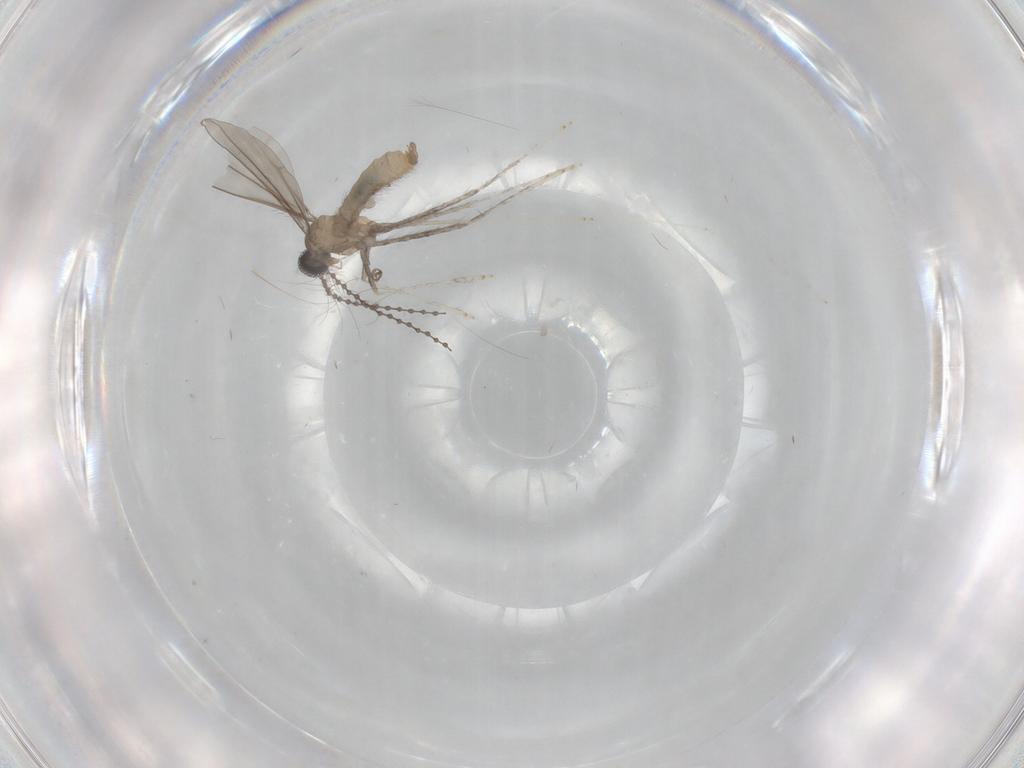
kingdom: Animalia
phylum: Arthropoda
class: Insecta
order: Diptera
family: Cecidomyiidae
